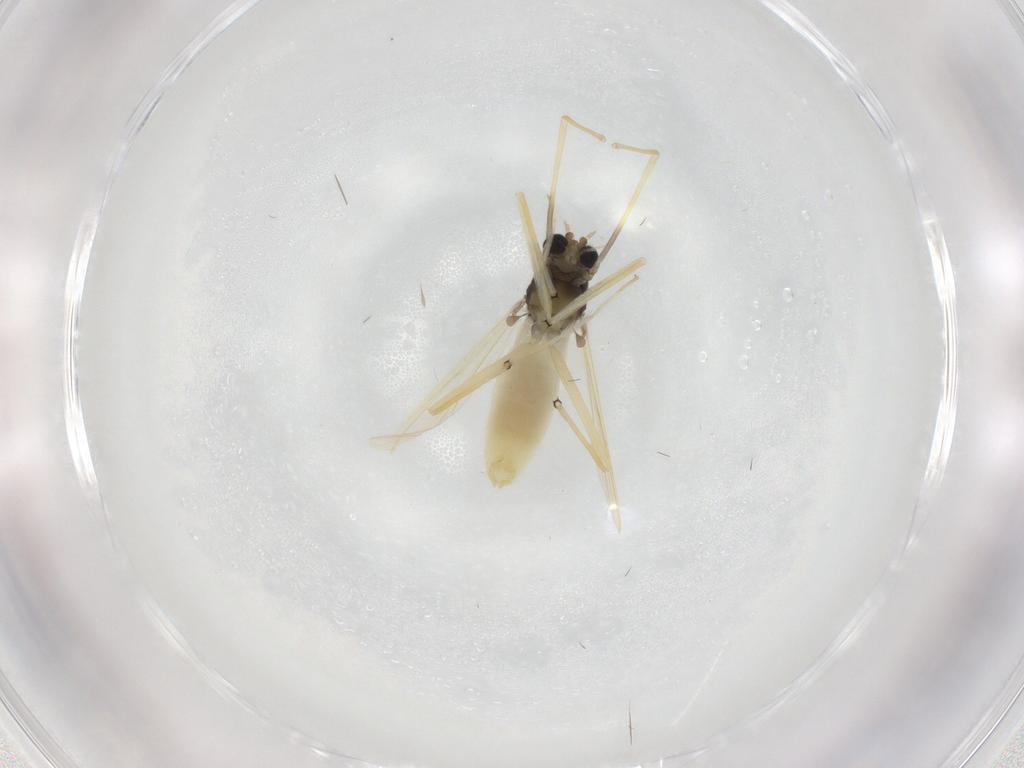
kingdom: Animalia
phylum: Arthropoda
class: Insecta
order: Diptera
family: Chironomidae
